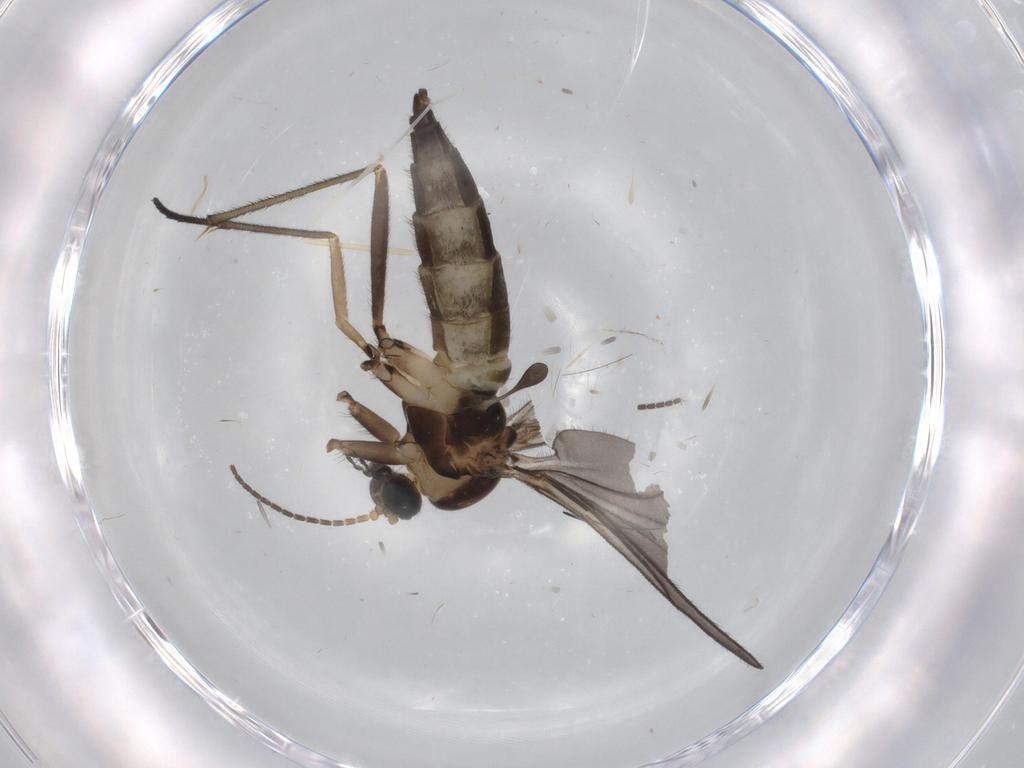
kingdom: Animalia
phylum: Arthropoda
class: Insecta
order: Diptera
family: Sciaridae
